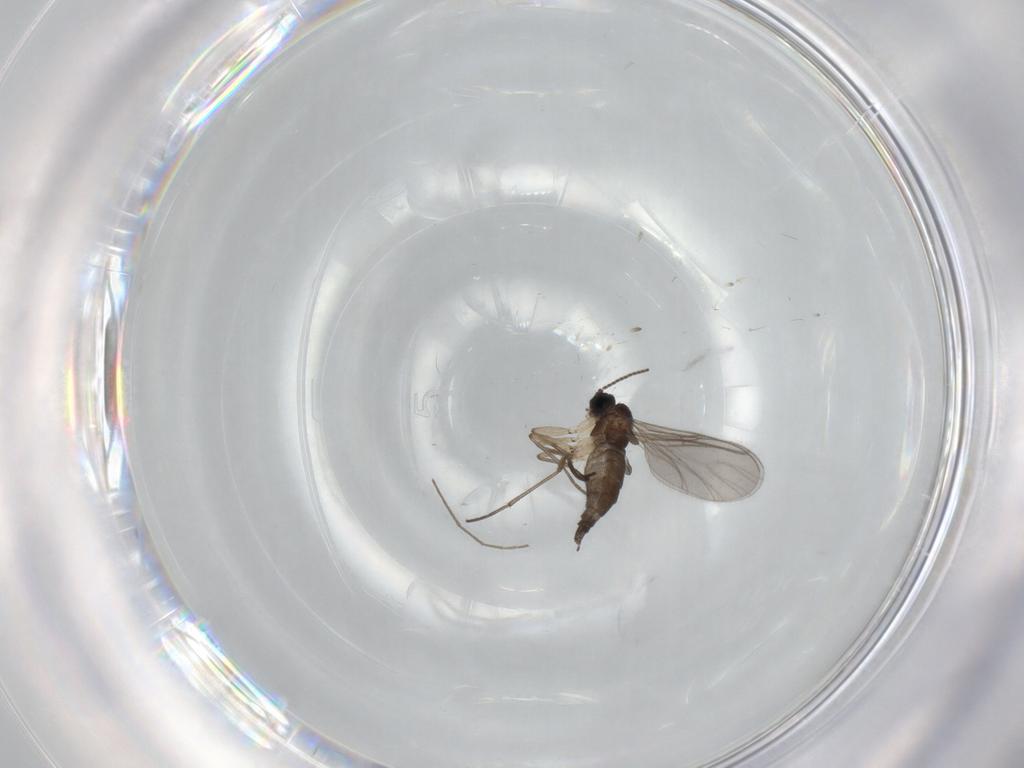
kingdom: Animalia
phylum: Arthropoda
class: Insecta
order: Diptera
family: Sciaridae
